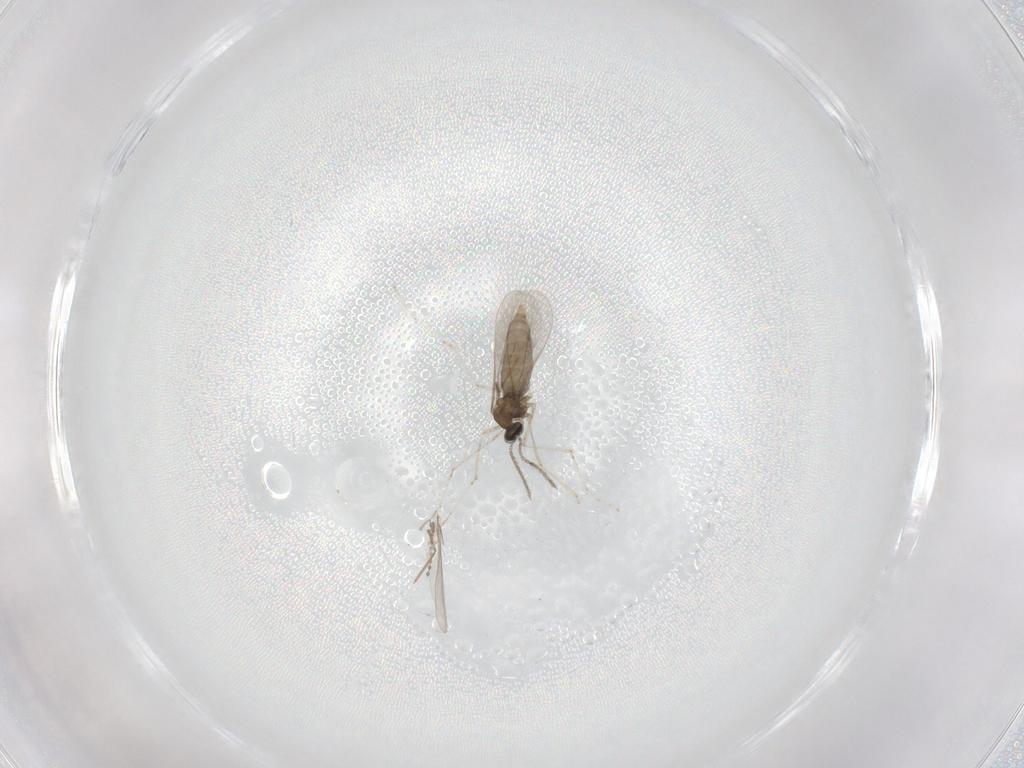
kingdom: Animalia
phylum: Arthropoda
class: Insecta
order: Diptera
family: Cecidomyiidae
